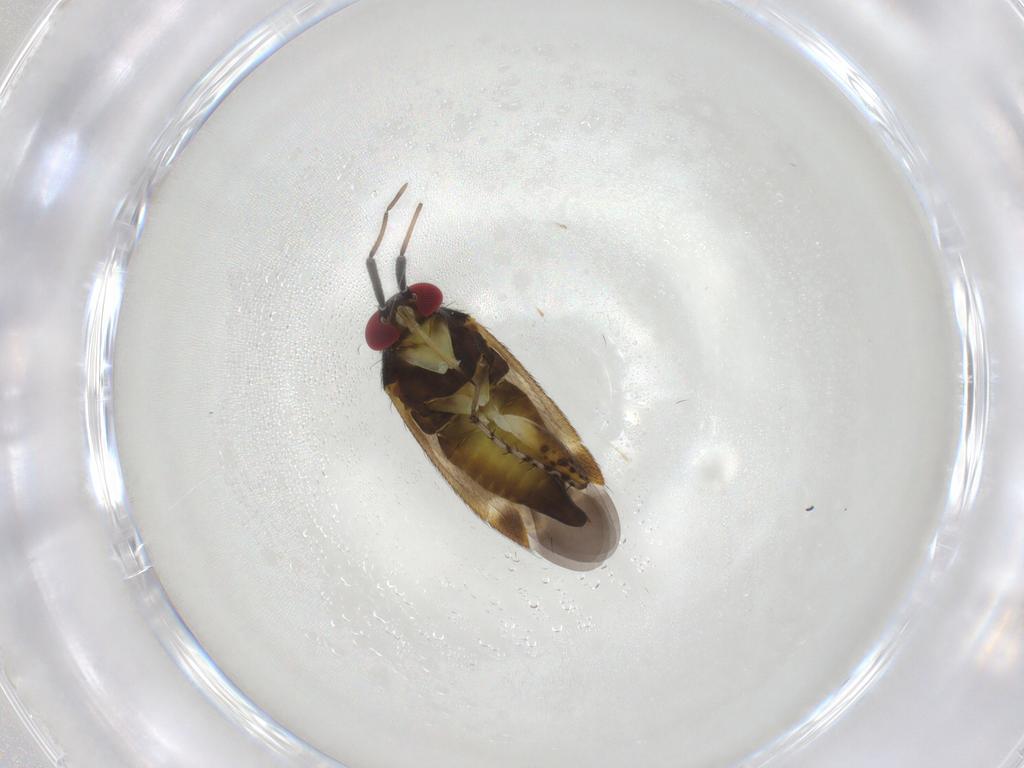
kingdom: Animalia
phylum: Arthropoda
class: Insecta
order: Hemiptera
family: Miridae
